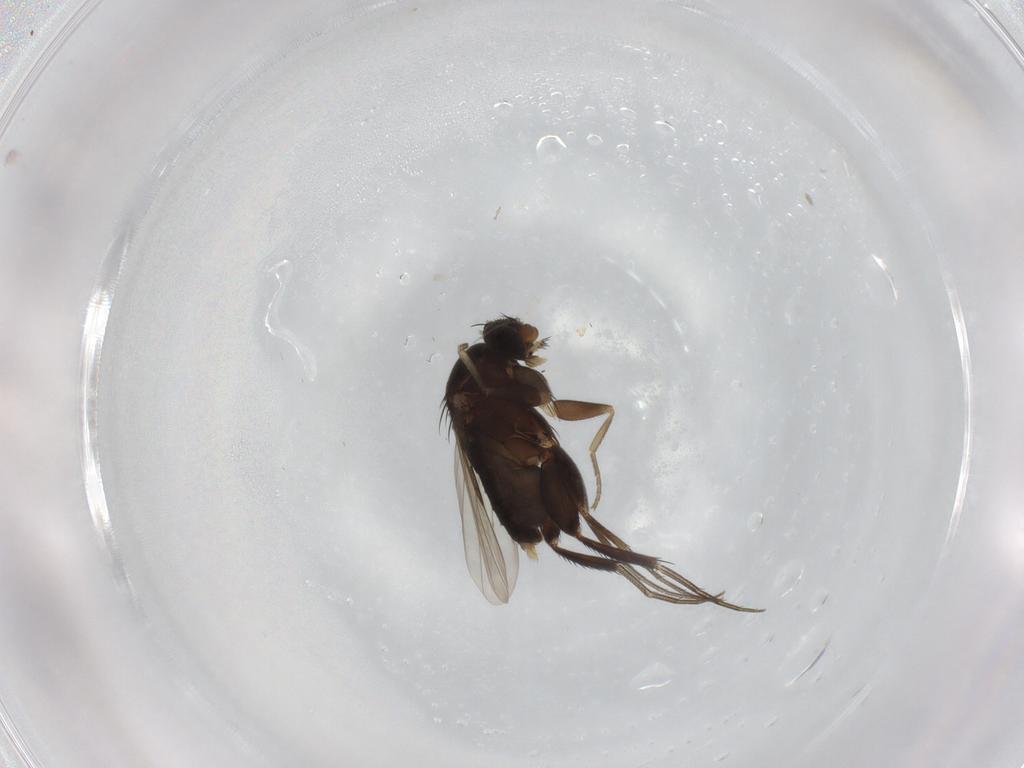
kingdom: Animalia
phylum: Arthropoda
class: Insecta
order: Diptera
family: Phoridae
